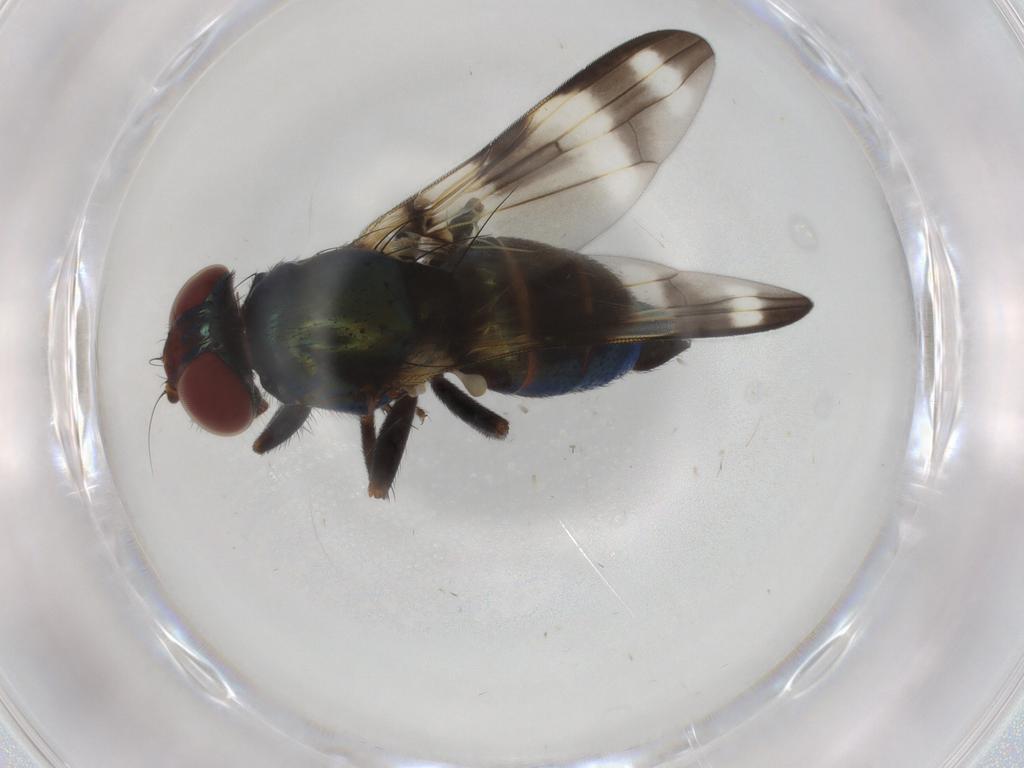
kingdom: Animalia
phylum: Arthropoda
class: Insecta
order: Diptera
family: Ulidiidae
